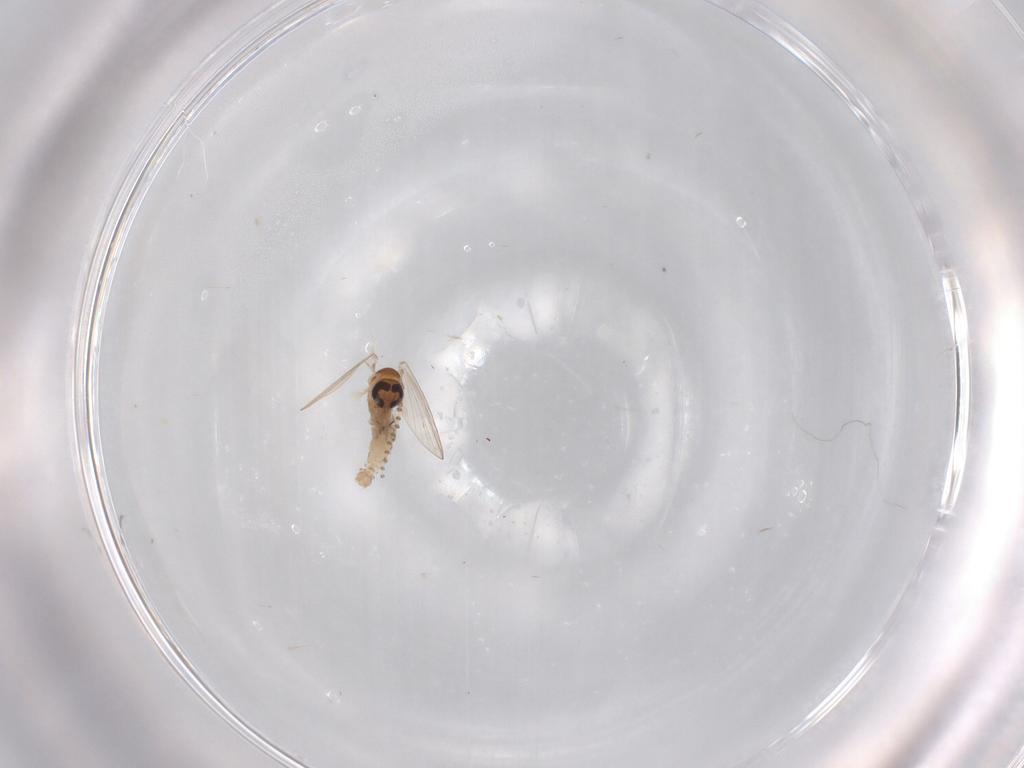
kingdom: Animalia
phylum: Arthropoda
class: Insecta
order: Diptera
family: Psychodidae
